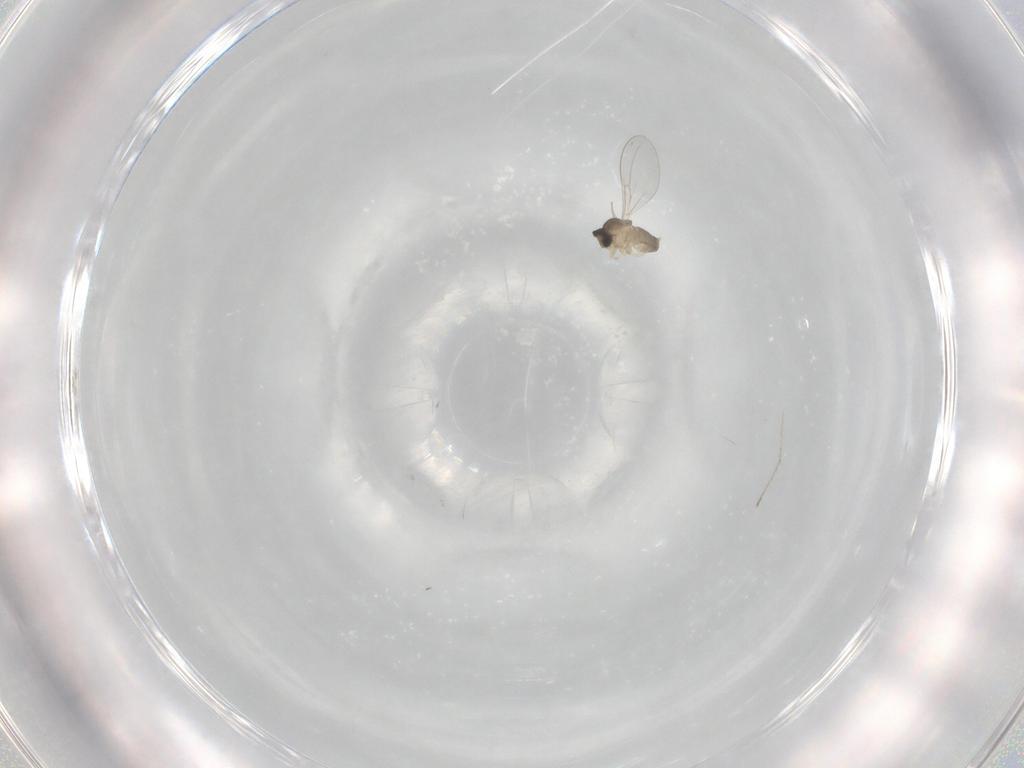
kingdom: Animalia
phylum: Arthropoda
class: Insecta
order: Diptera
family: Cecidomyiidae
